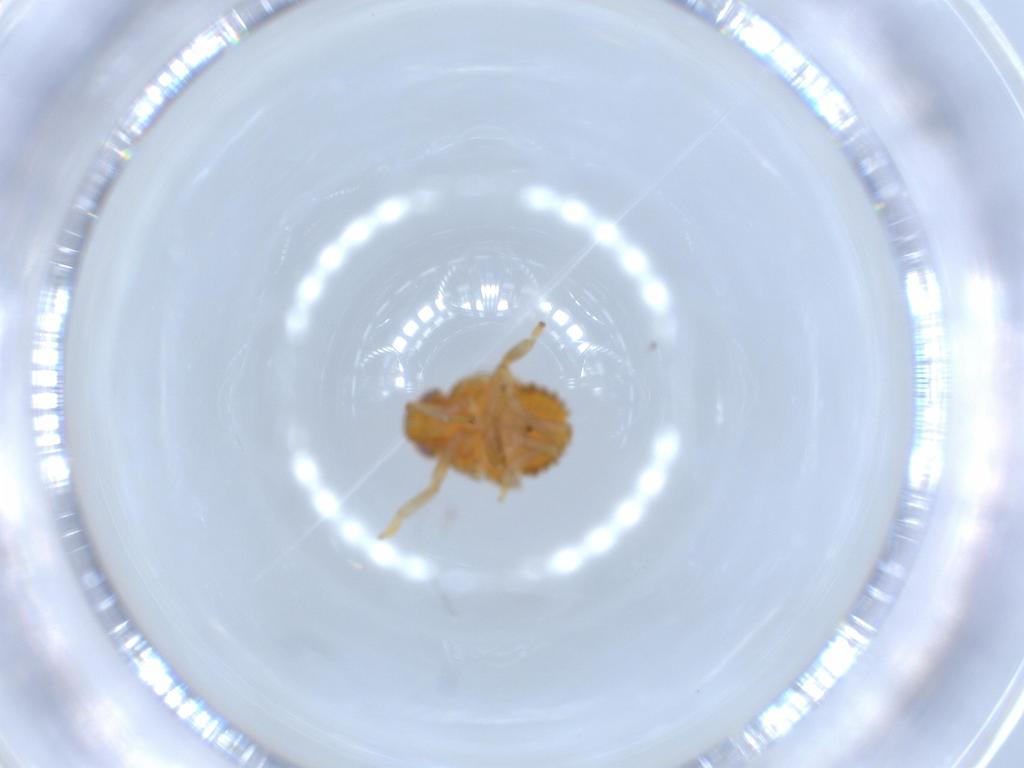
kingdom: Animalia
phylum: Arthropoda
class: Insecta
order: Hemiptera
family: Issidae
